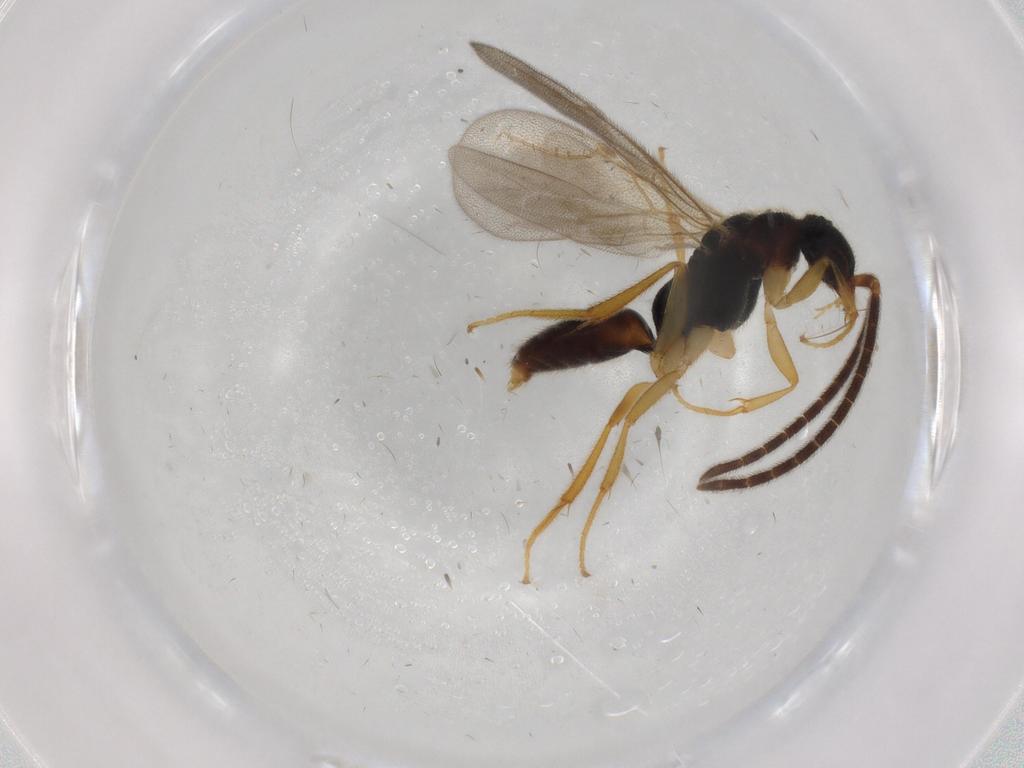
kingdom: Animalia
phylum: Arthropoda
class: Insecta
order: Hymenoptera
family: Bethylidae
